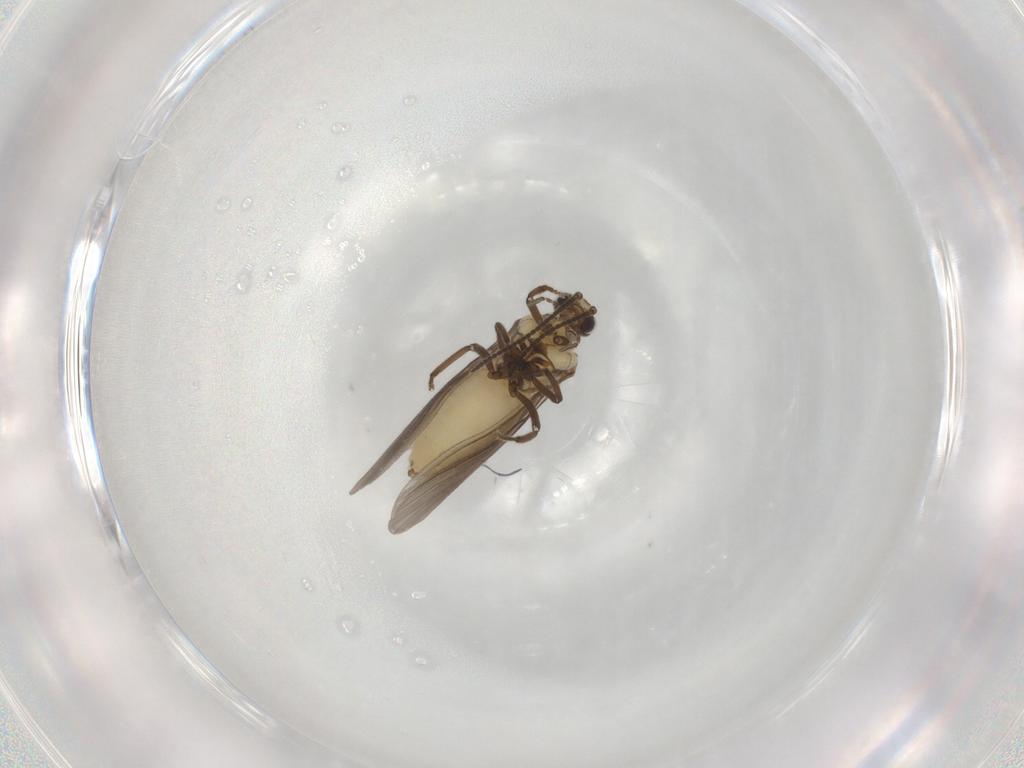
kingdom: Animalia
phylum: Arthropoda
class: Insecta
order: Neuroptera
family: Coniopterygidae
